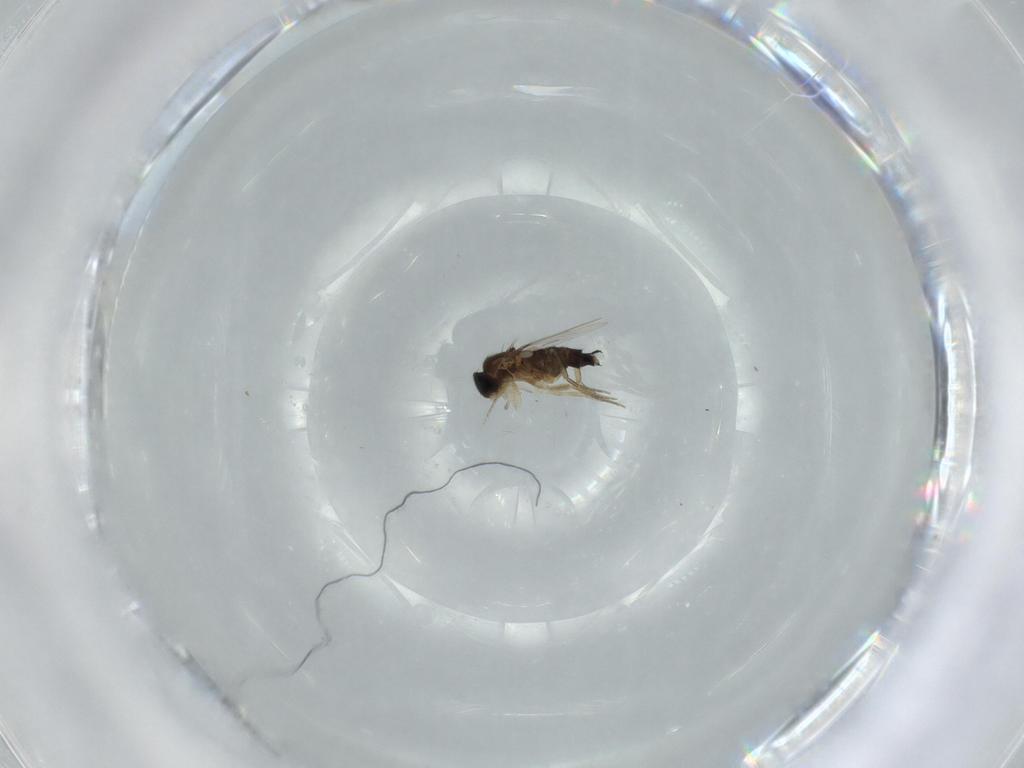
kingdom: Animalia
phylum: Arthropoda
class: Insecta
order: Diptera
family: Phoridae
